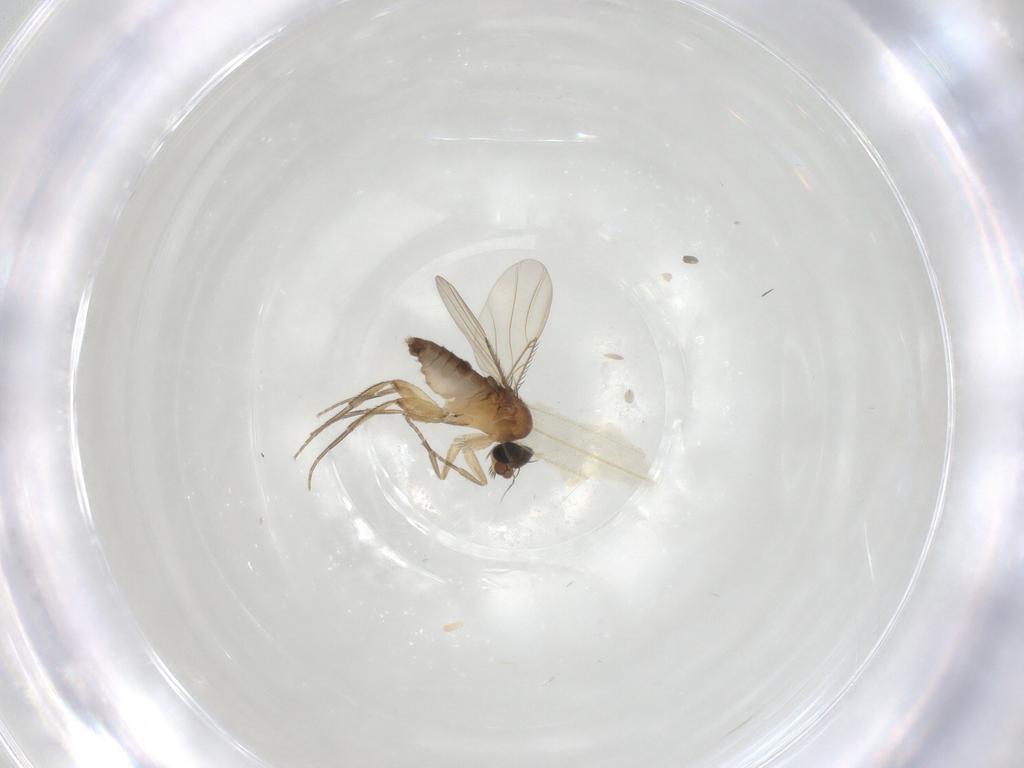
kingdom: Animalia
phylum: Arthropoda
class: Insecta
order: Diptera
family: Phoridae
